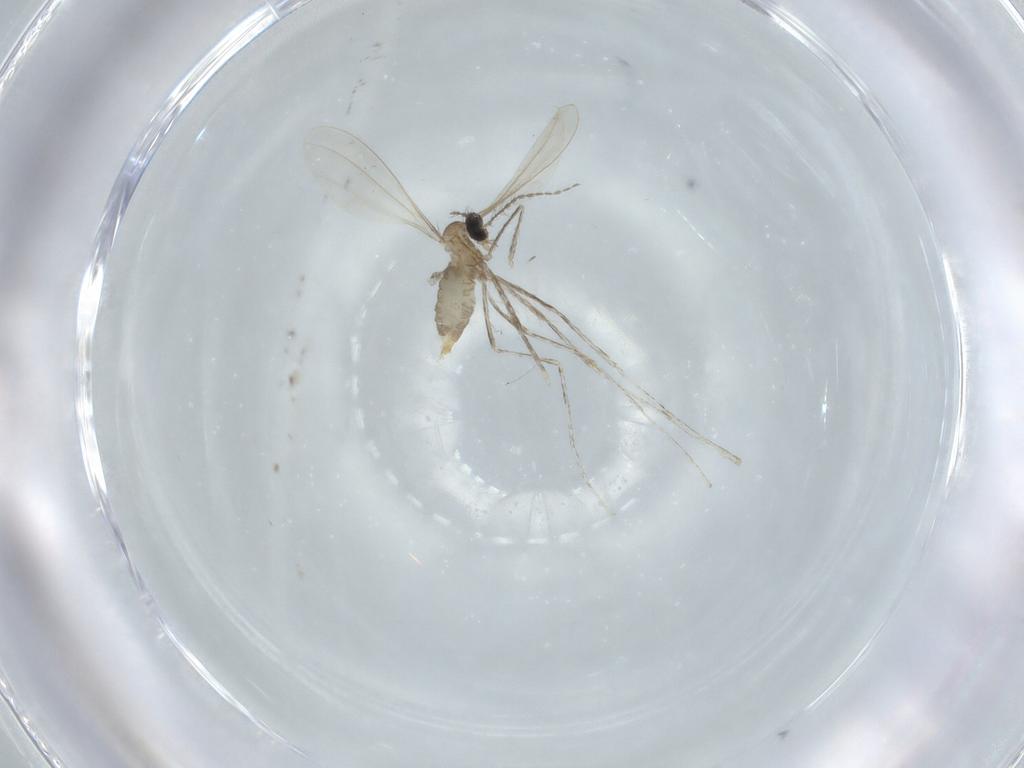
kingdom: Animalia
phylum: Arthropoda
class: Insecta
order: Diptera
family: Cecidomyiidae
